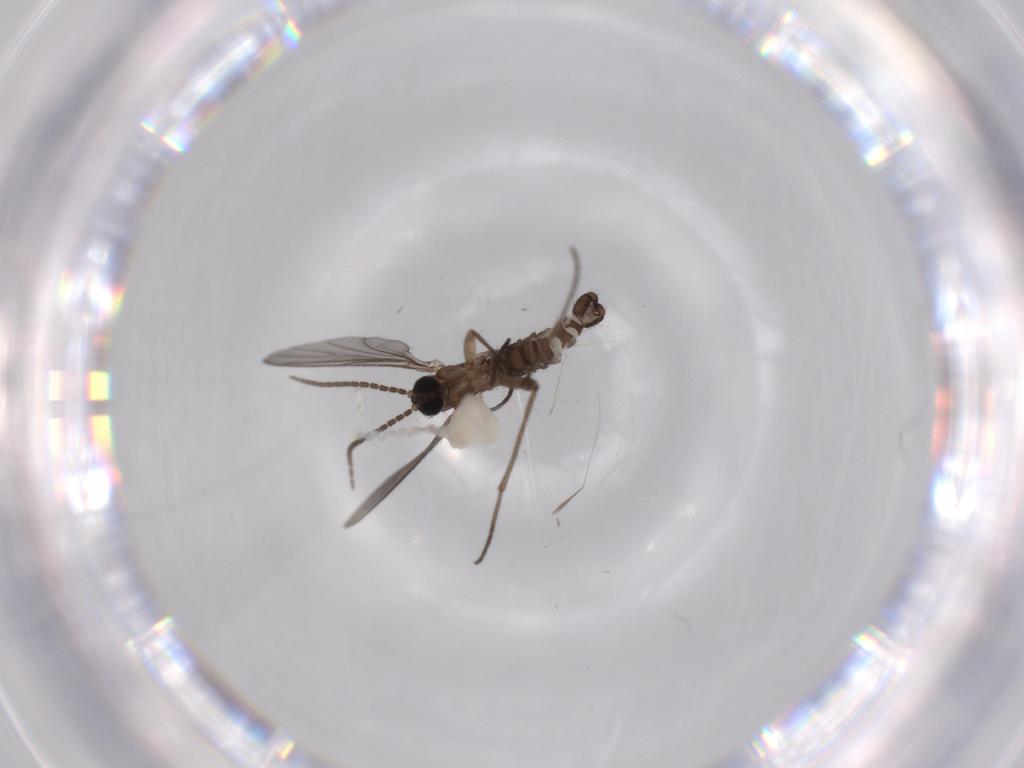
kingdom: Animalia
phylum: Arthropoda
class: Insecta
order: Diptera
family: Sciaridae
